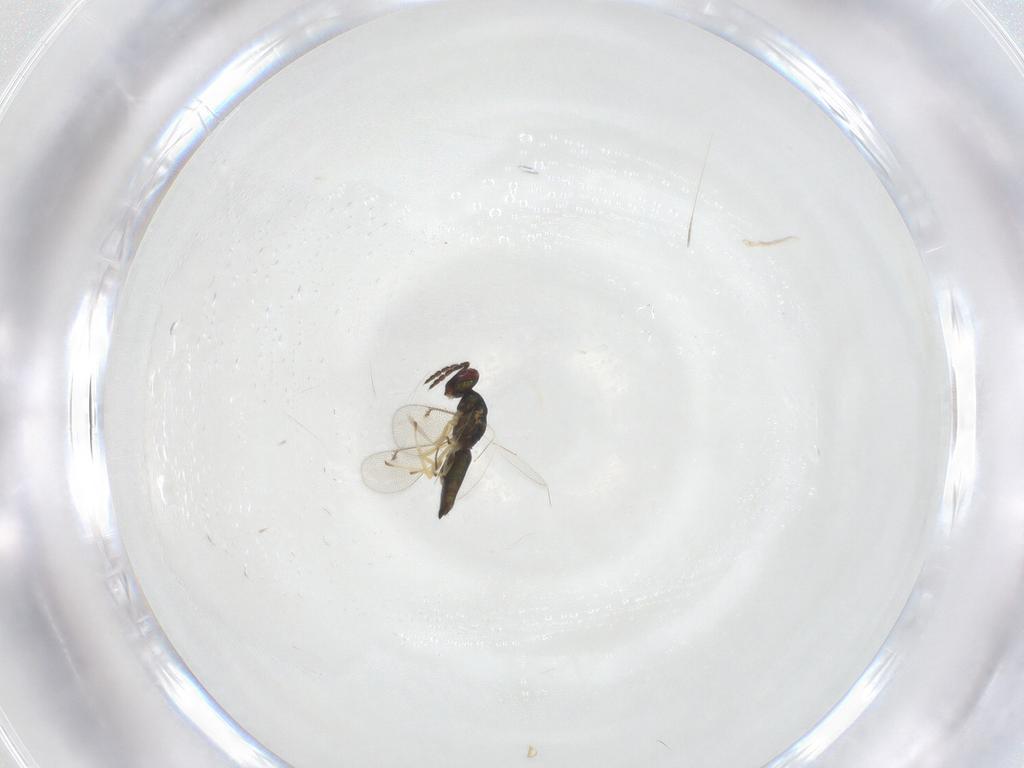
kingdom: Animalia
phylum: Arthropoda
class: Insecta
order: Hymenoptera
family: Eulophidae
